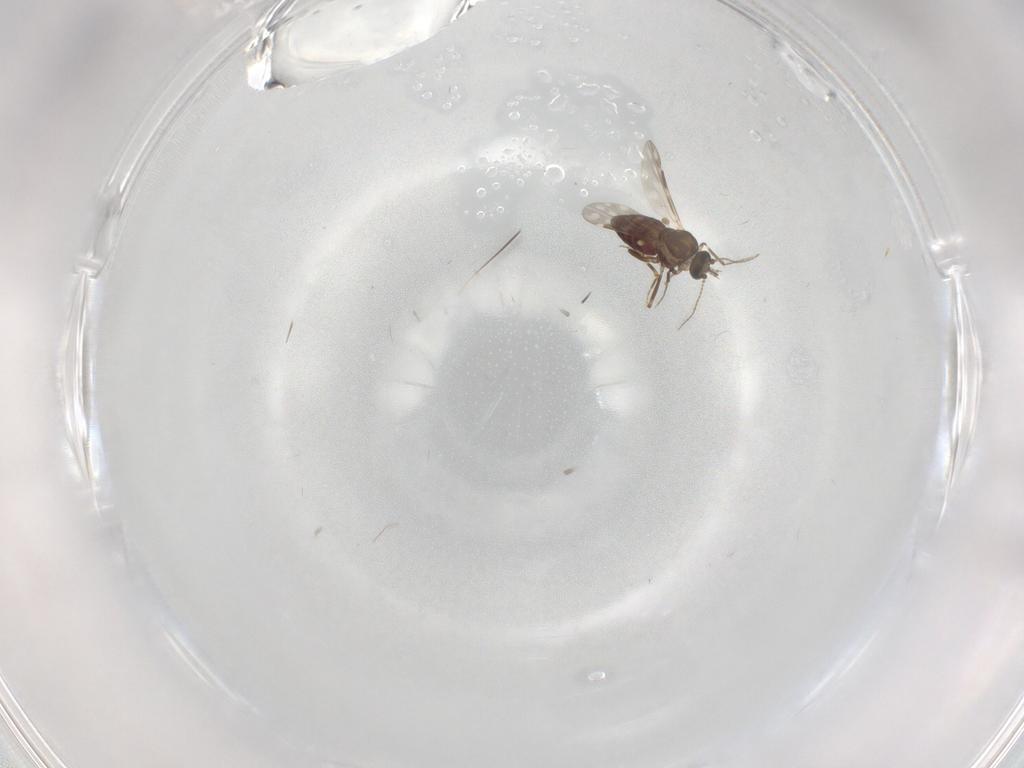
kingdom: Animalia
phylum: Arthropoda
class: Insecta
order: Diptera
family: Ceratopogonidae
